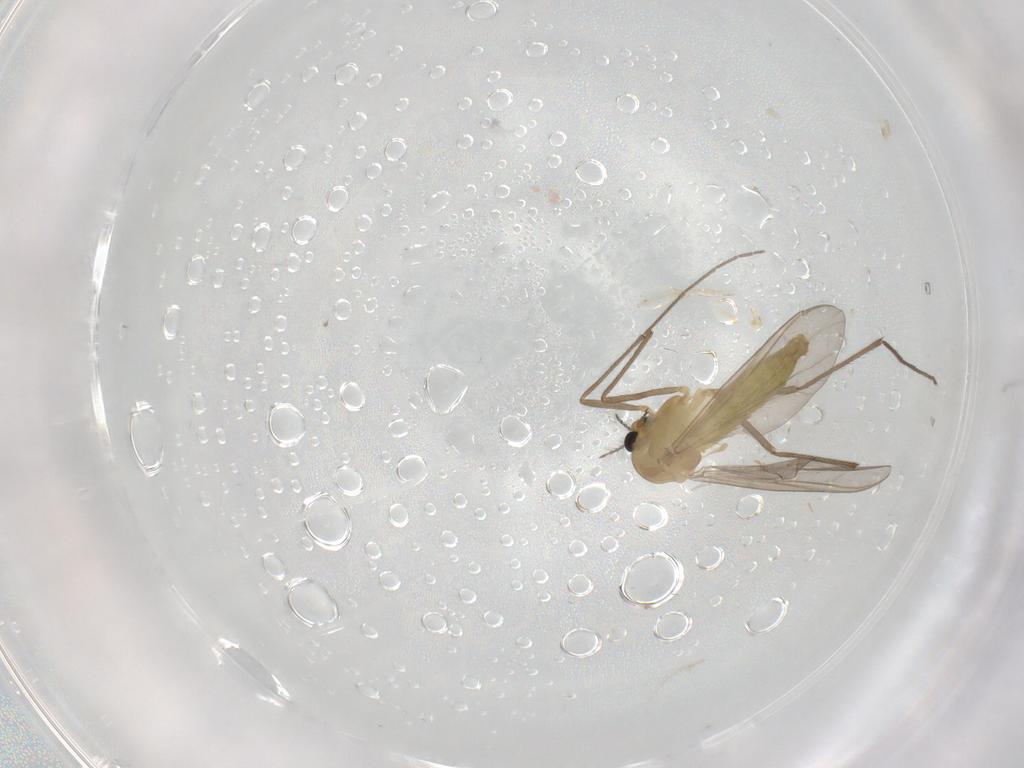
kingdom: Animalia
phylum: Arthropoda
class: Insecta
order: Diptera
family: Chironomidae
